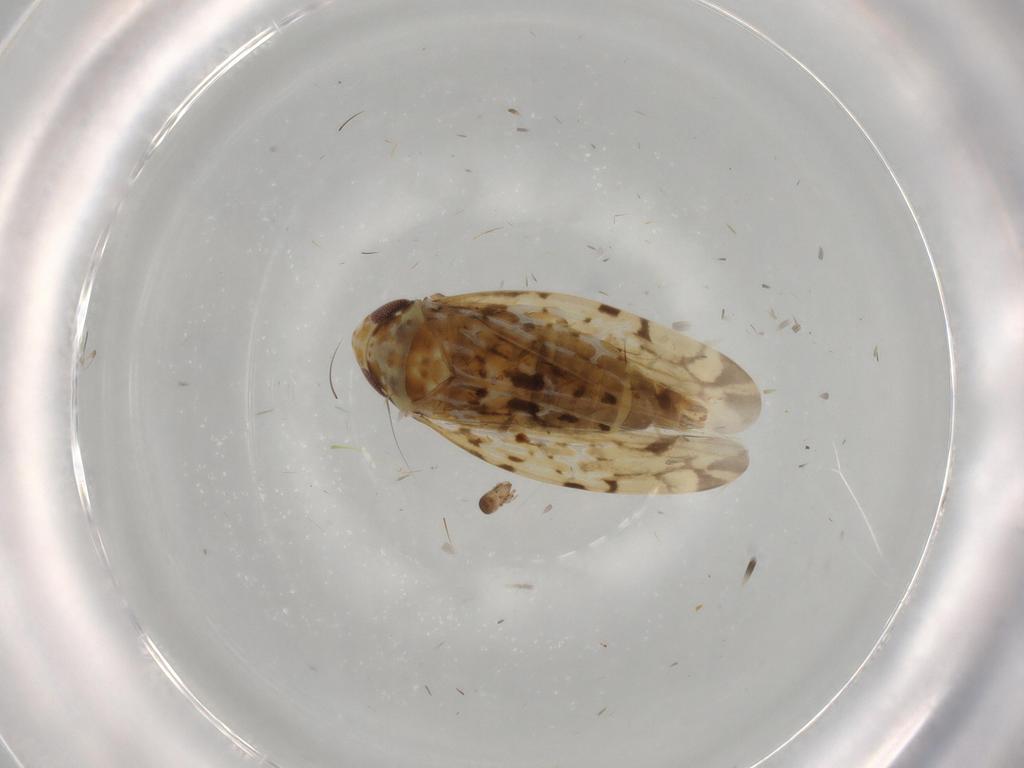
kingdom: Animalia
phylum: Arthropoda
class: Insecta
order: Hemiptera
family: Cicadellidae
